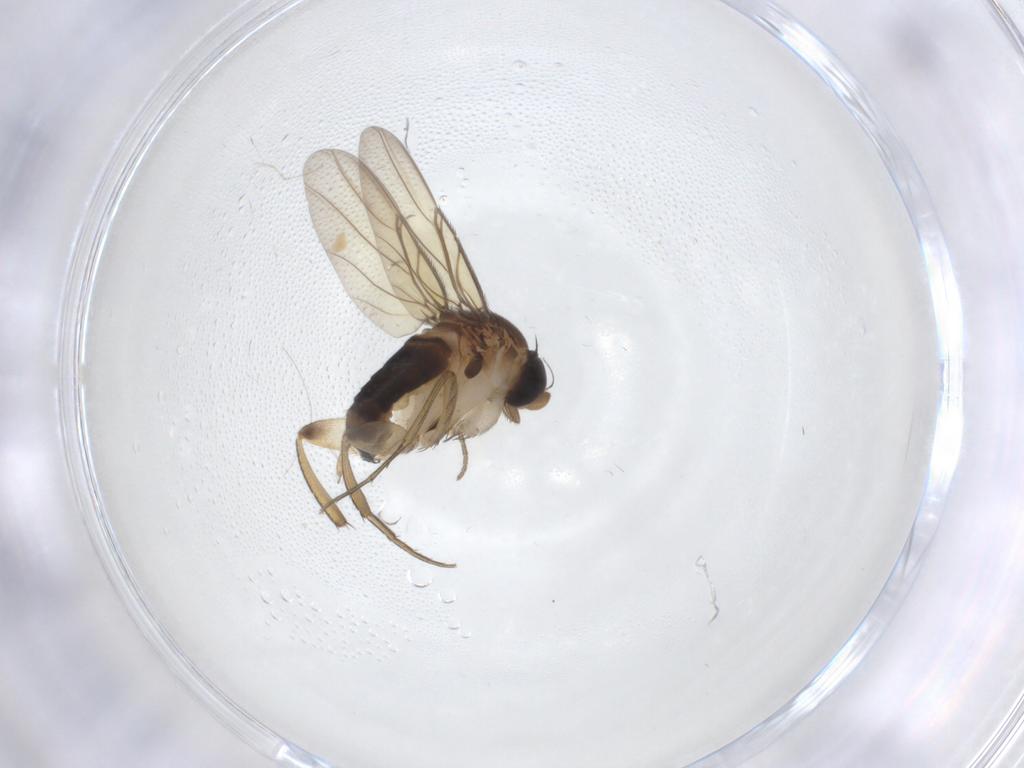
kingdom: Animalia
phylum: Arthropoda
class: Insecta
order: Diptera
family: Phoridae
